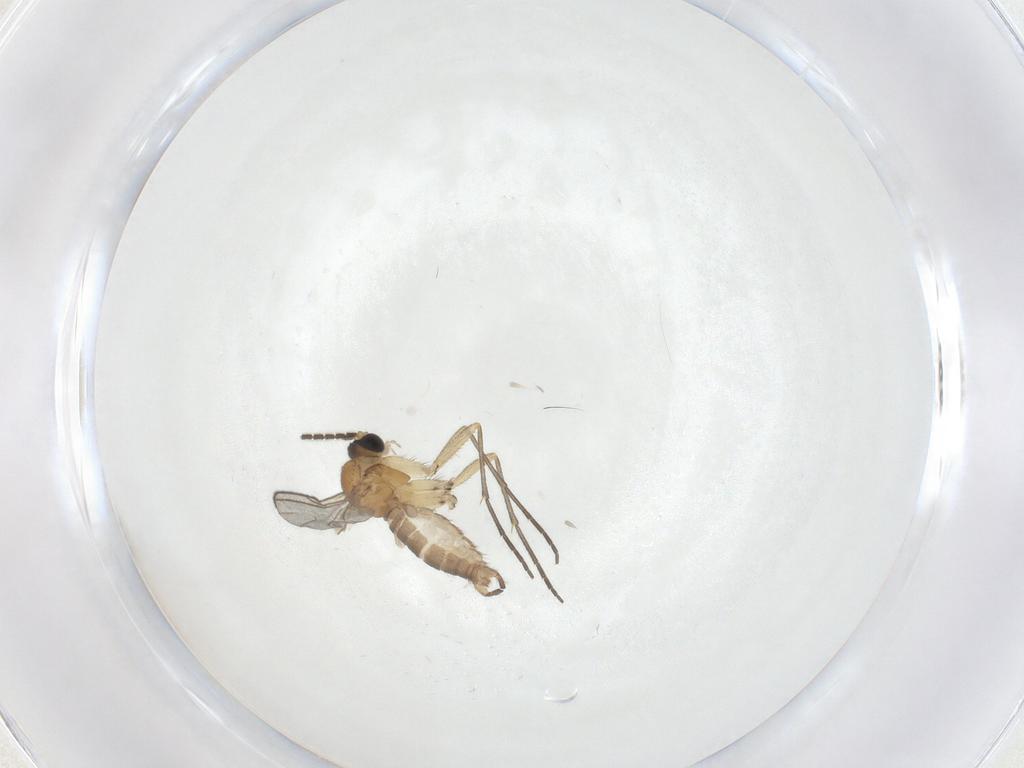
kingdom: Animalia
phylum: Arthropoda
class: Insecta
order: Diptera
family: Sciaridae
